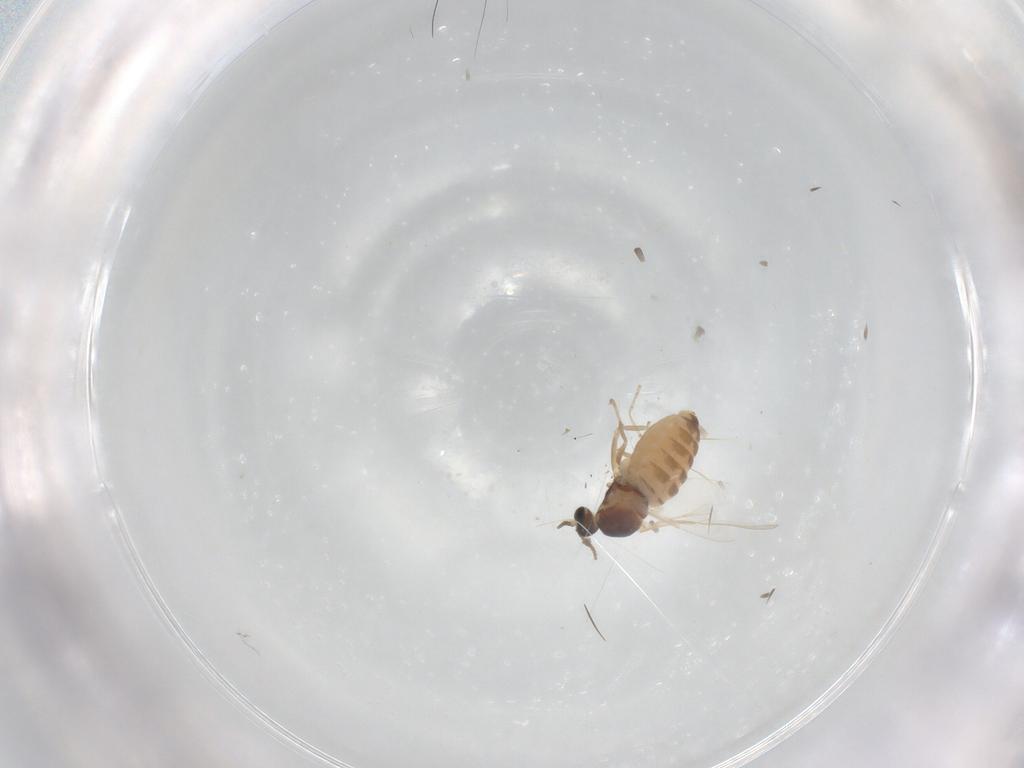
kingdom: Animalia
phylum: Arthropoda
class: Insecta
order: Diptera
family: Cecidomyiidae
